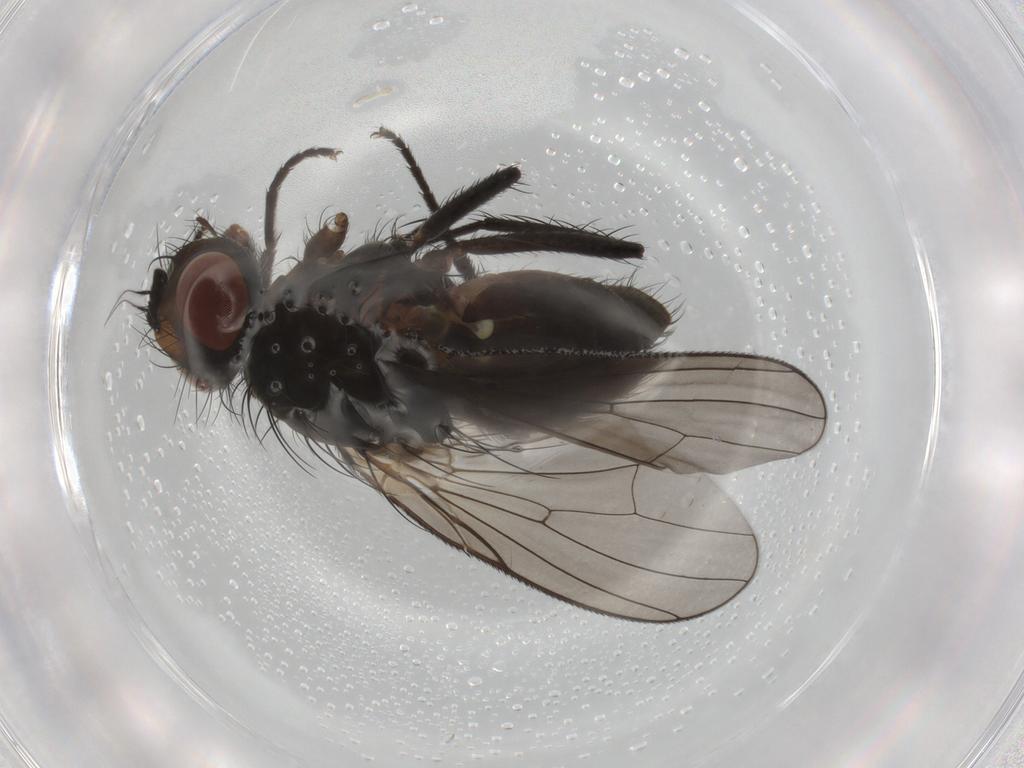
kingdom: Animalia
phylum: Arthropoda
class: Insecta
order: Diptera
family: Anthomyiidae
